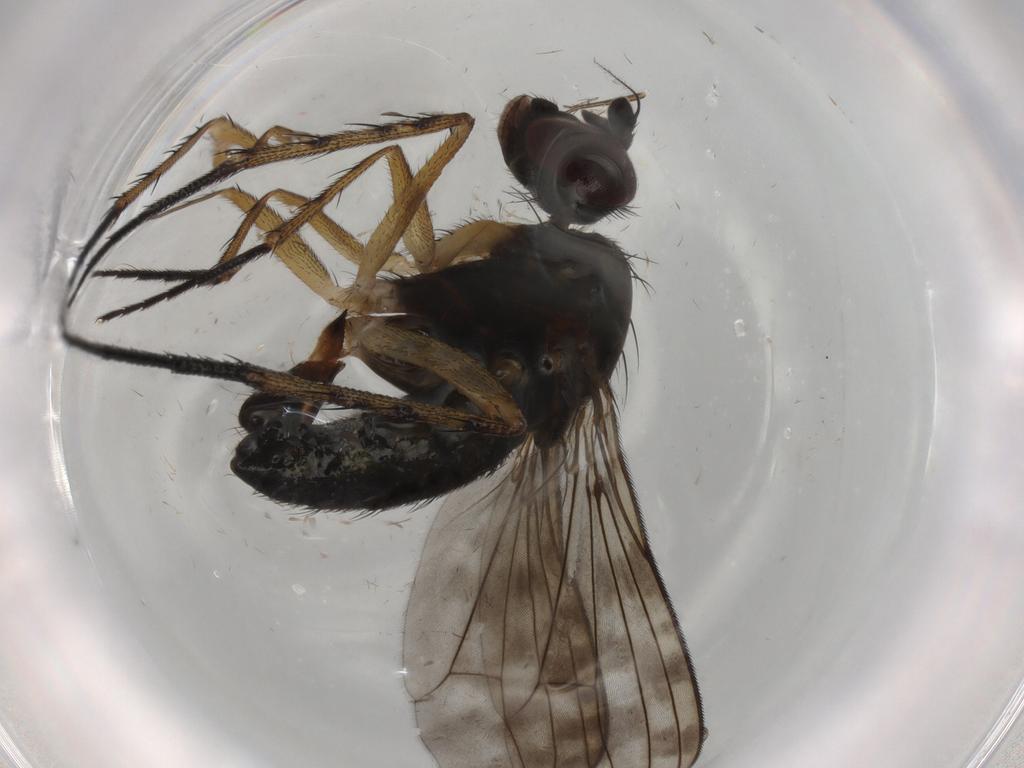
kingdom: Animalia
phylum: Arthropoda
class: Insecta
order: Diptera
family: Dolichopodidae
